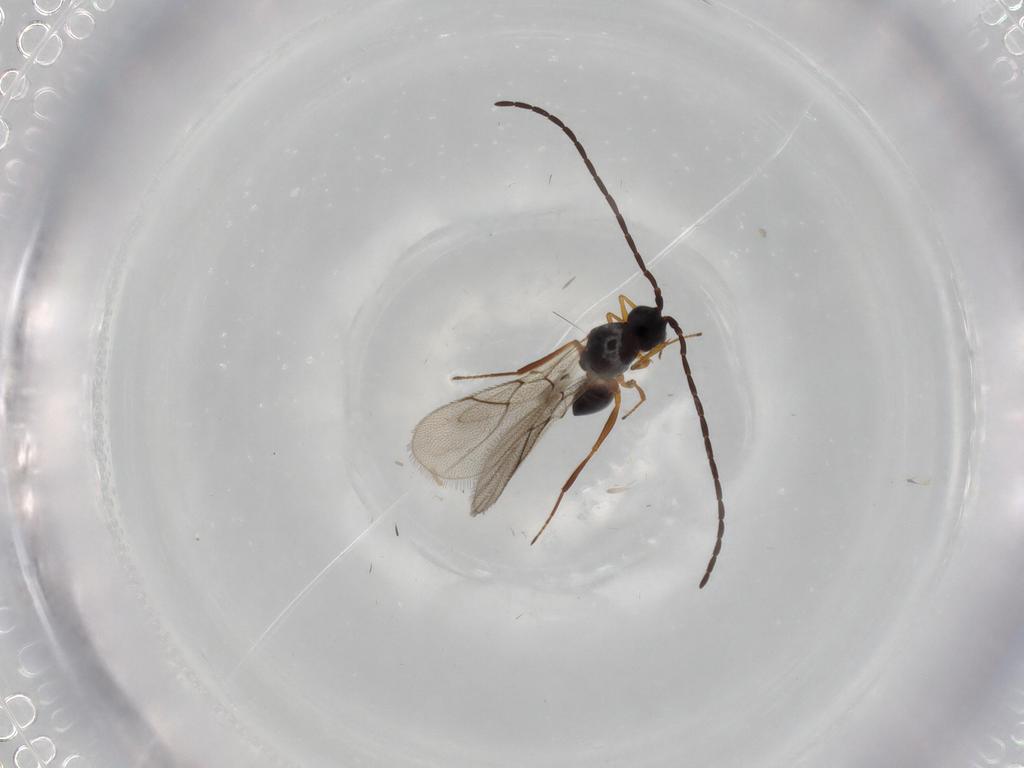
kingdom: Animalia
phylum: Arthropoda
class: Insecta
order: Hymenoptera
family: Figitidae
